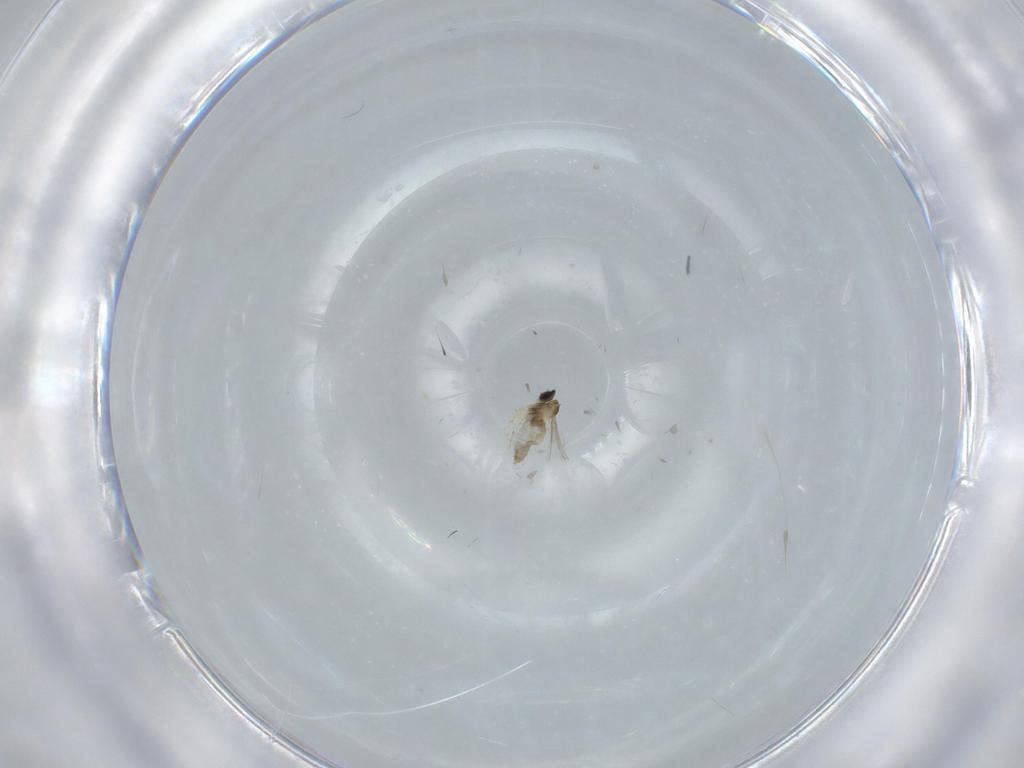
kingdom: Animalia
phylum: Arthropoda
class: Insecta
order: Diptera
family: Cecidomyiidae
